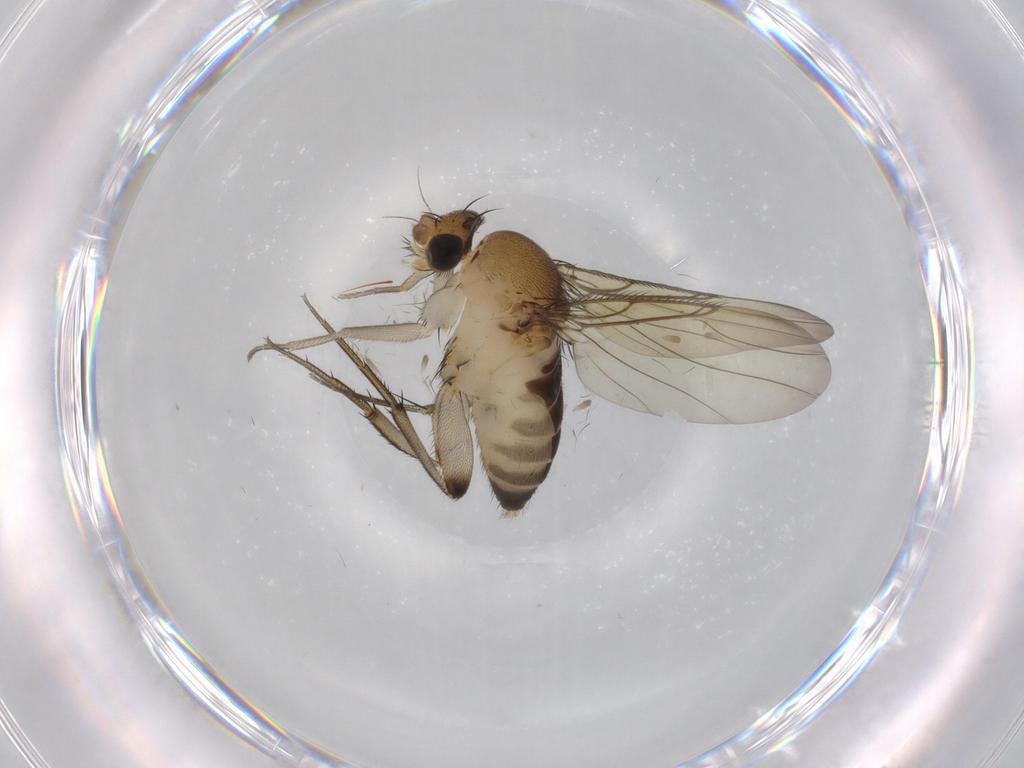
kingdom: Animalia
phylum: Arthropoda
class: Insecta
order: Diptera
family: Phoridae
